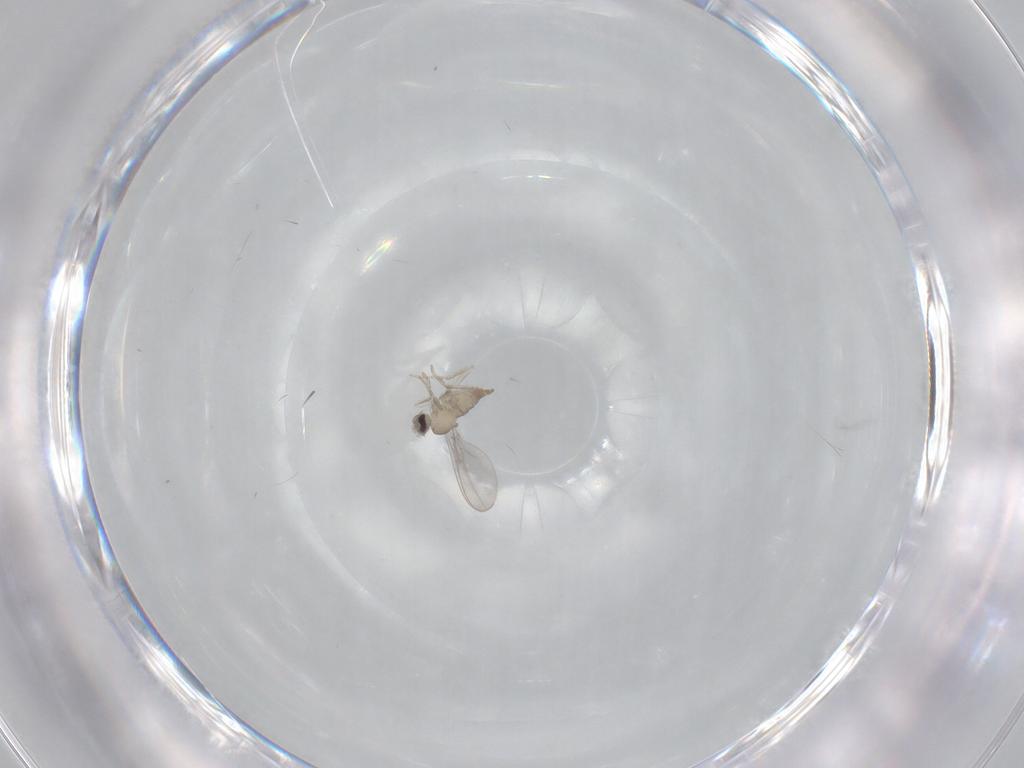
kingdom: Animalia
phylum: Arthropoda
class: Insecta
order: Diptera
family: Cecidomyiidae
